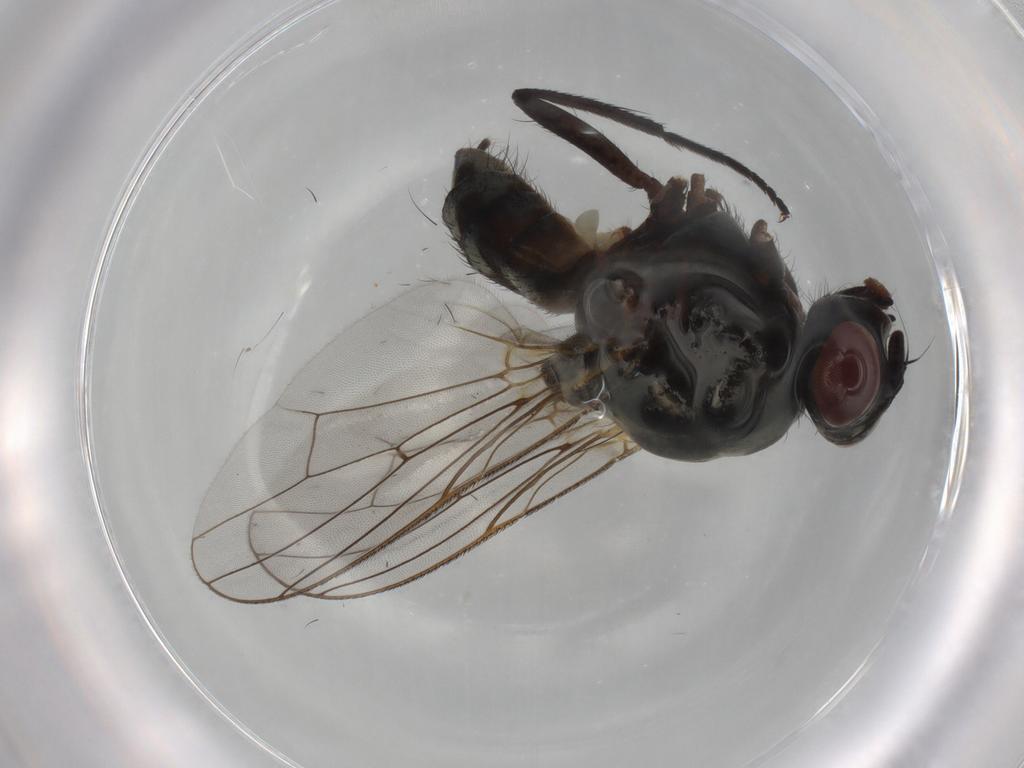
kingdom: Animalia
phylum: Arthropoda
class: Insecta
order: Diptera
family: Anthomyiidae
